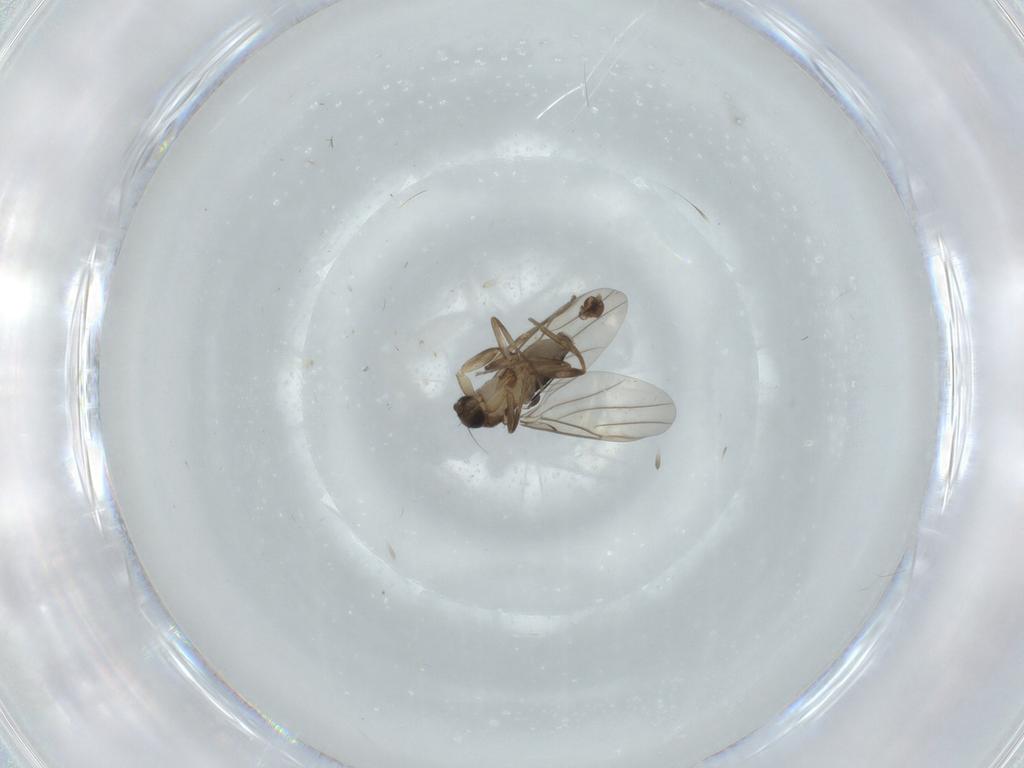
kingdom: Animalia
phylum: Arthropoda
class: Insecta
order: Diptera
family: Phoridae
